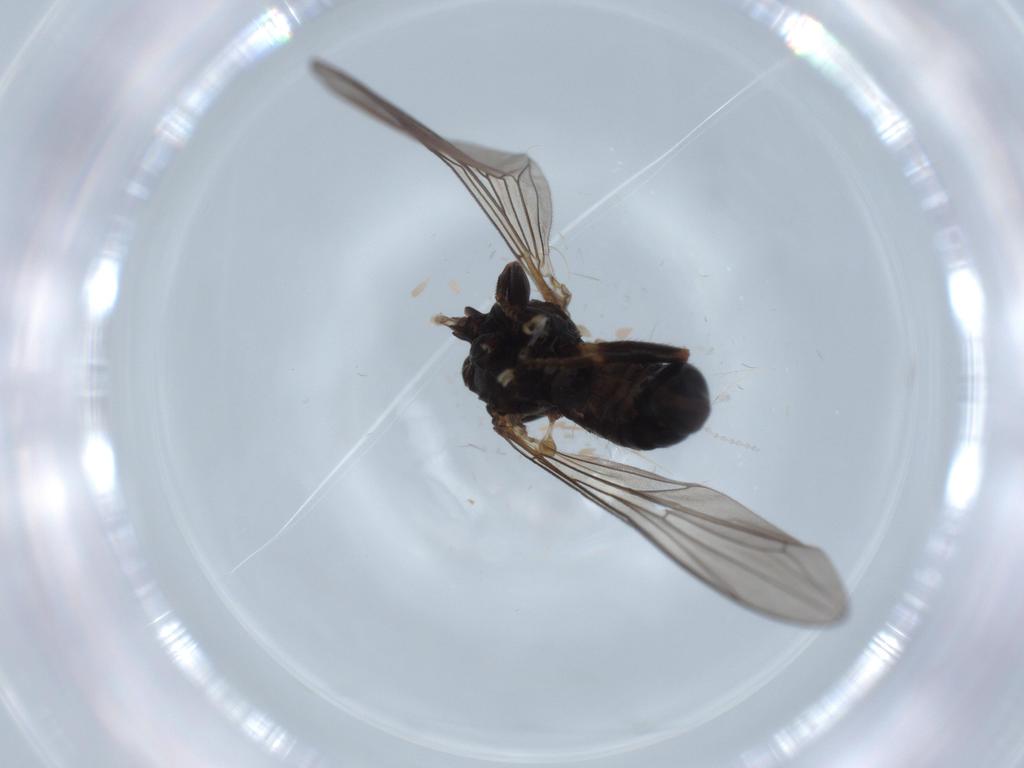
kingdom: Animalia
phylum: Arthropoda
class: Insecta
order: Diptera
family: Pipunculidae
